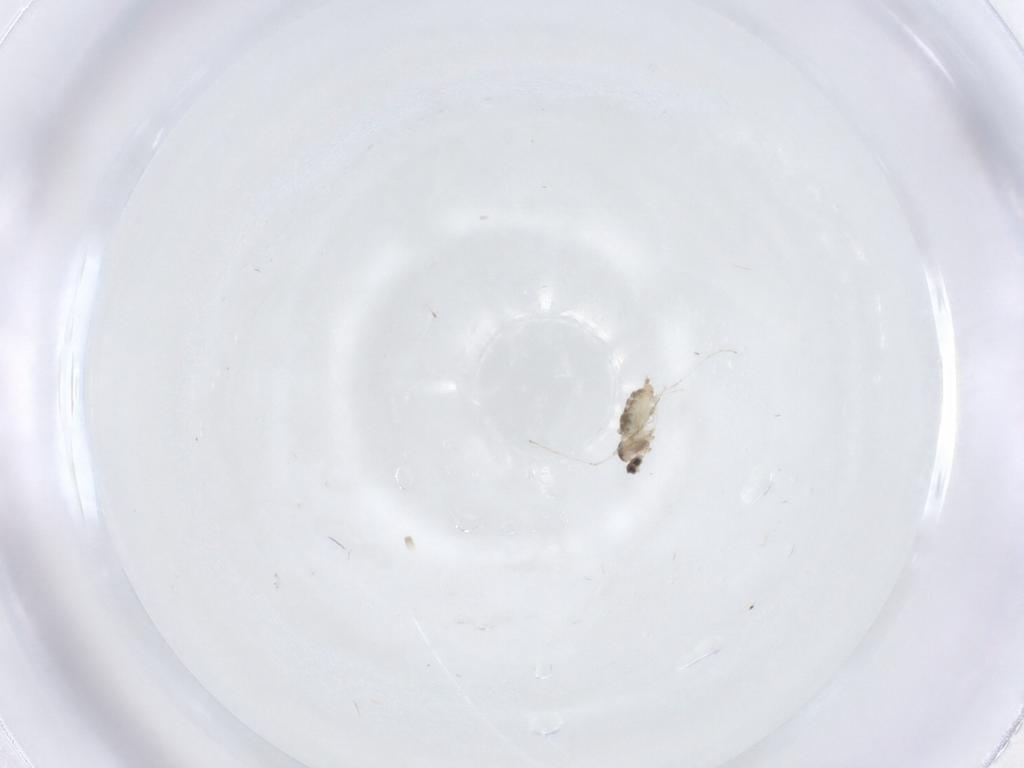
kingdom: Animalia
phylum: Arthropoda
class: Insecta
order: Diptera
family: Cecidomyiidae
